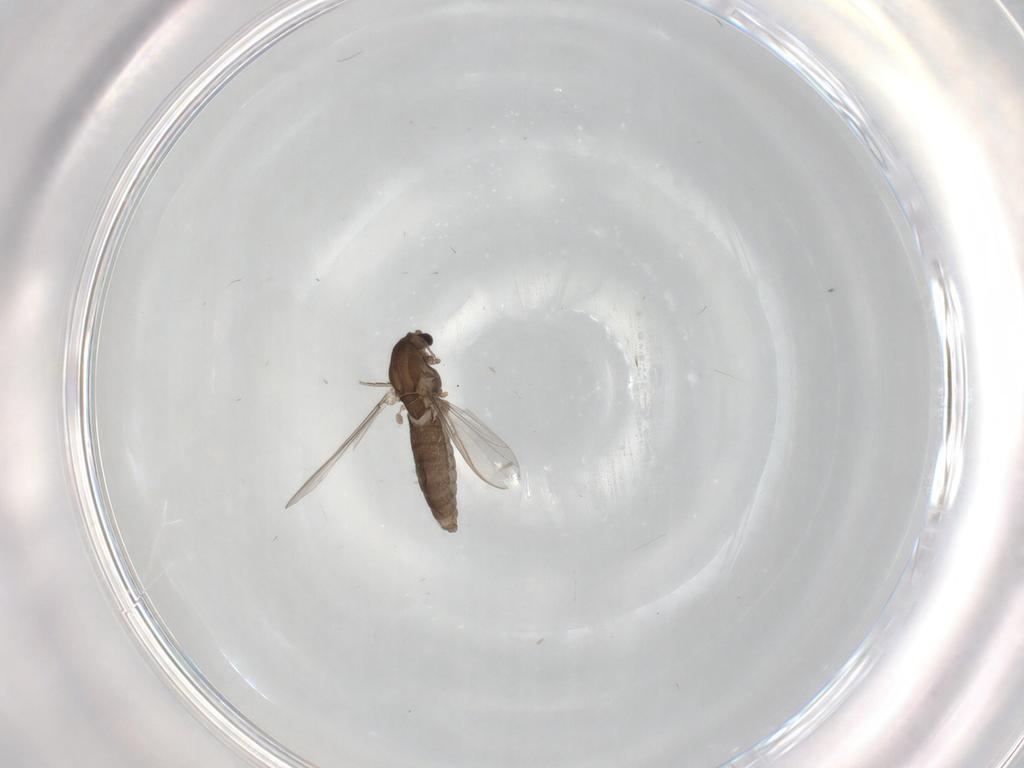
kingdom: Animalia
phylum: Arthropoda
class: Insecta
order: Diptera
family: Chironomidae
